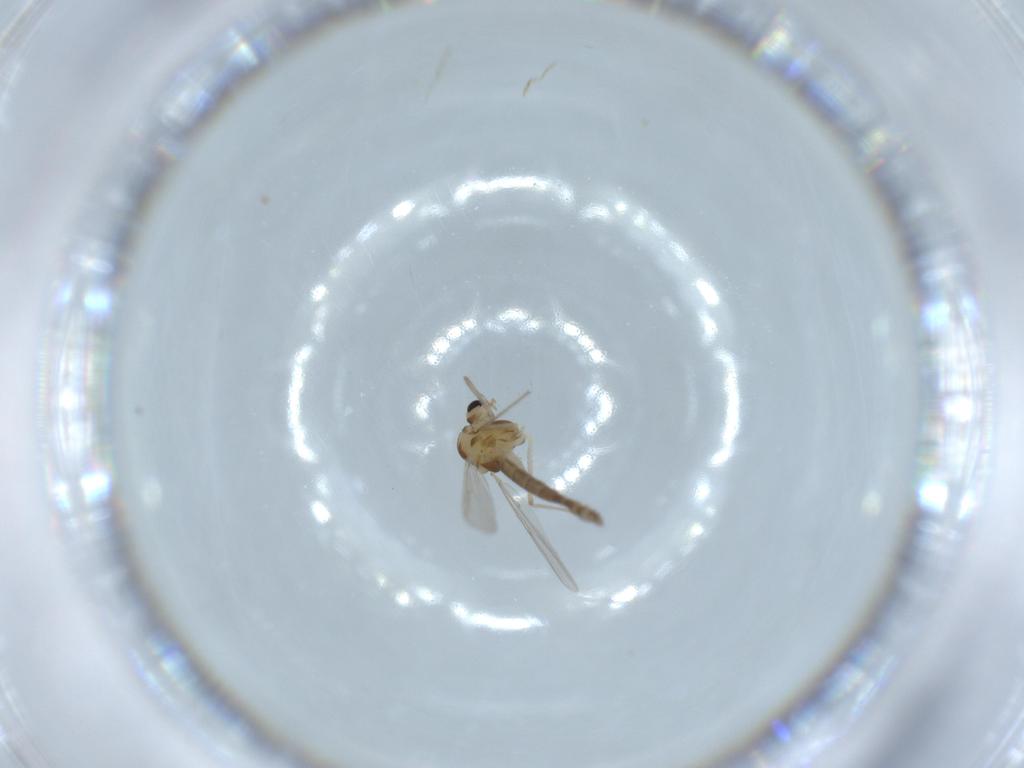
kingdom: Animalia
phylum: Arthropoda
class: Insecta
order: Diptera
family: Chironomidae
